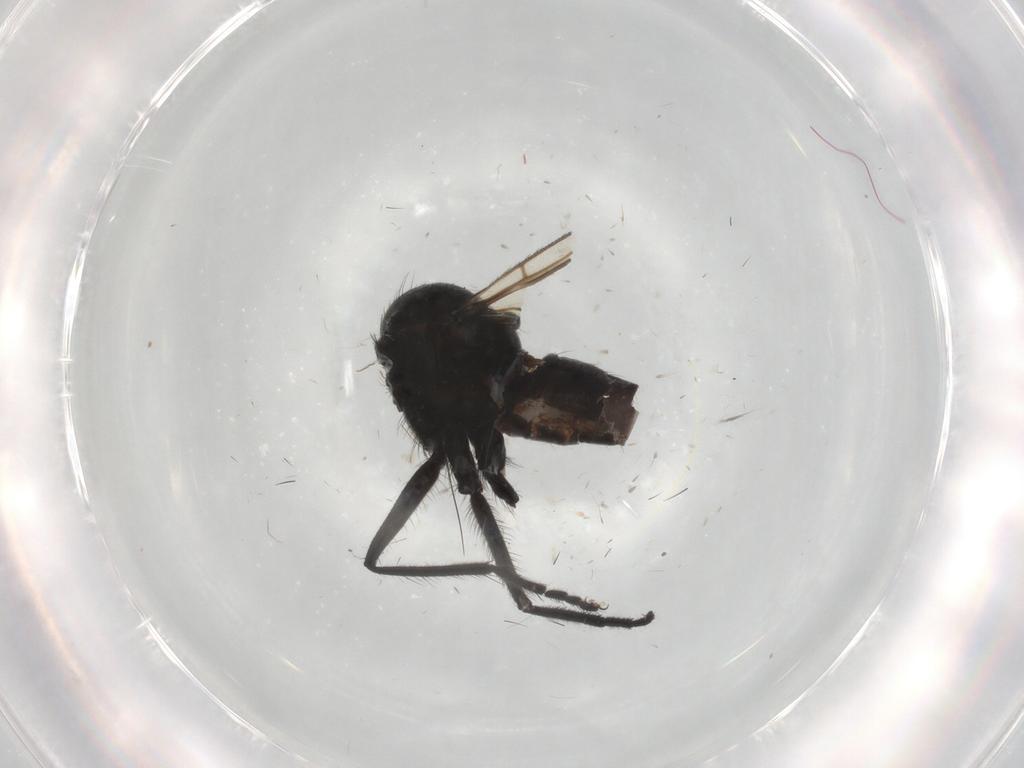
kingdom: Animalia
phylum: Arthropoda
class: Insecta
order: Diptera
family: Empididae
